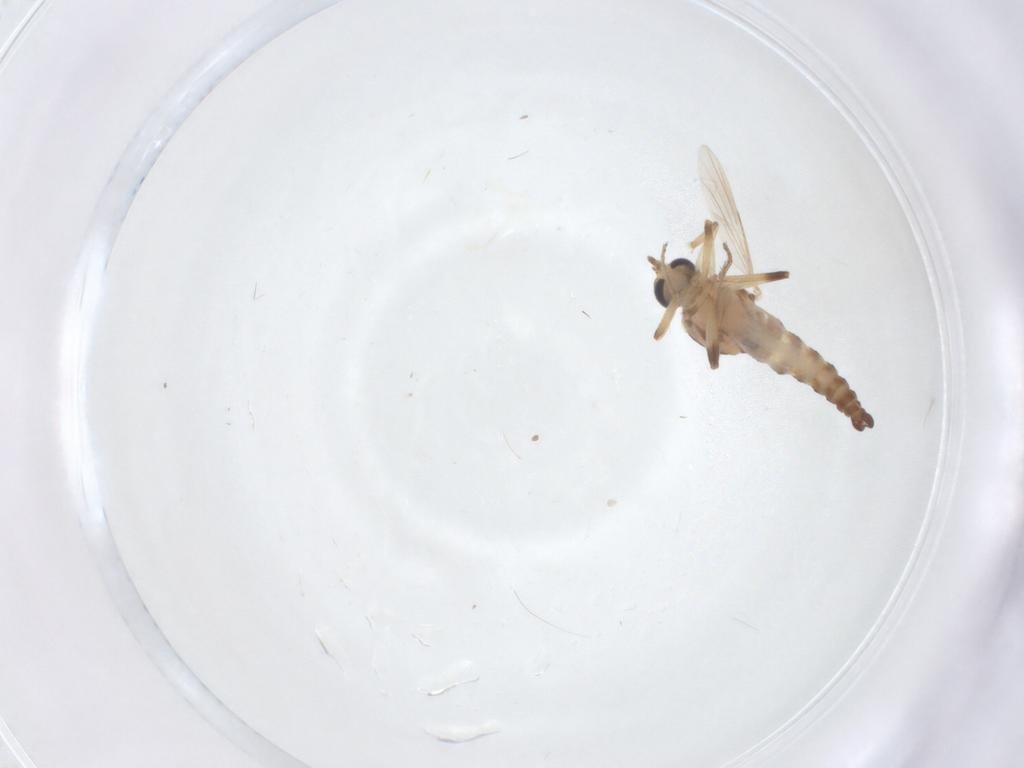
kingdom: Animalia
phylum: Arthropoda
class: Insecta
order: Diptera
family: Ceratopogonidae
